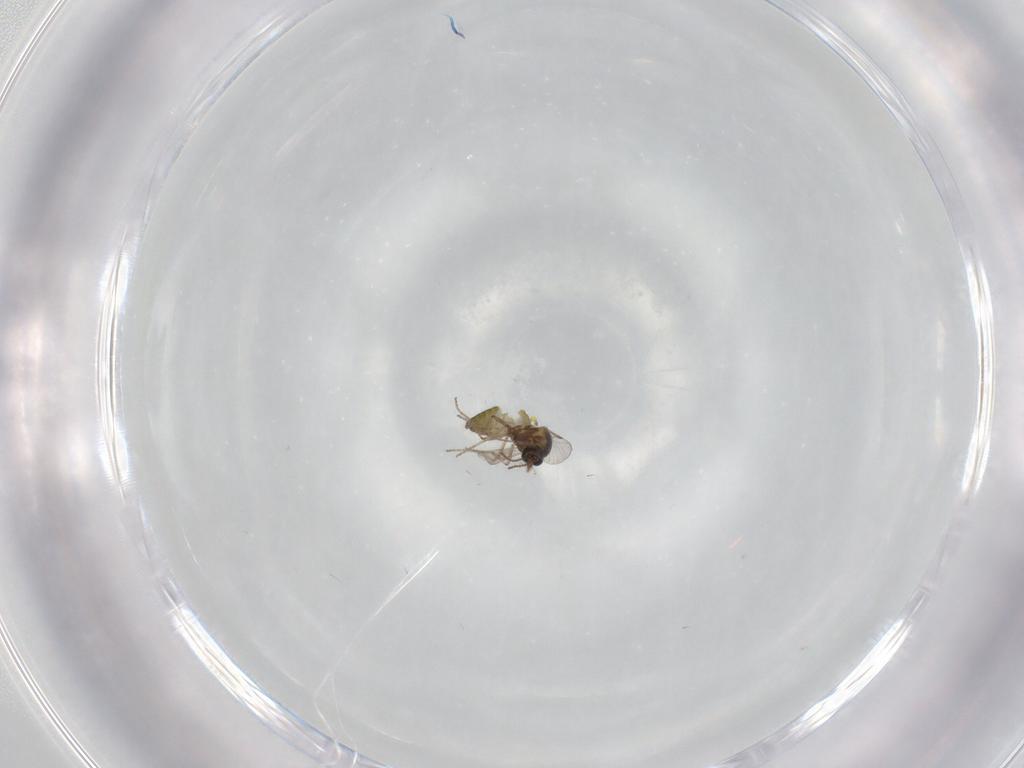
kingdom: Animalia
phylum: Arthropoda
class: Insecta
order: Diptera
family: Ceratopogonidae
